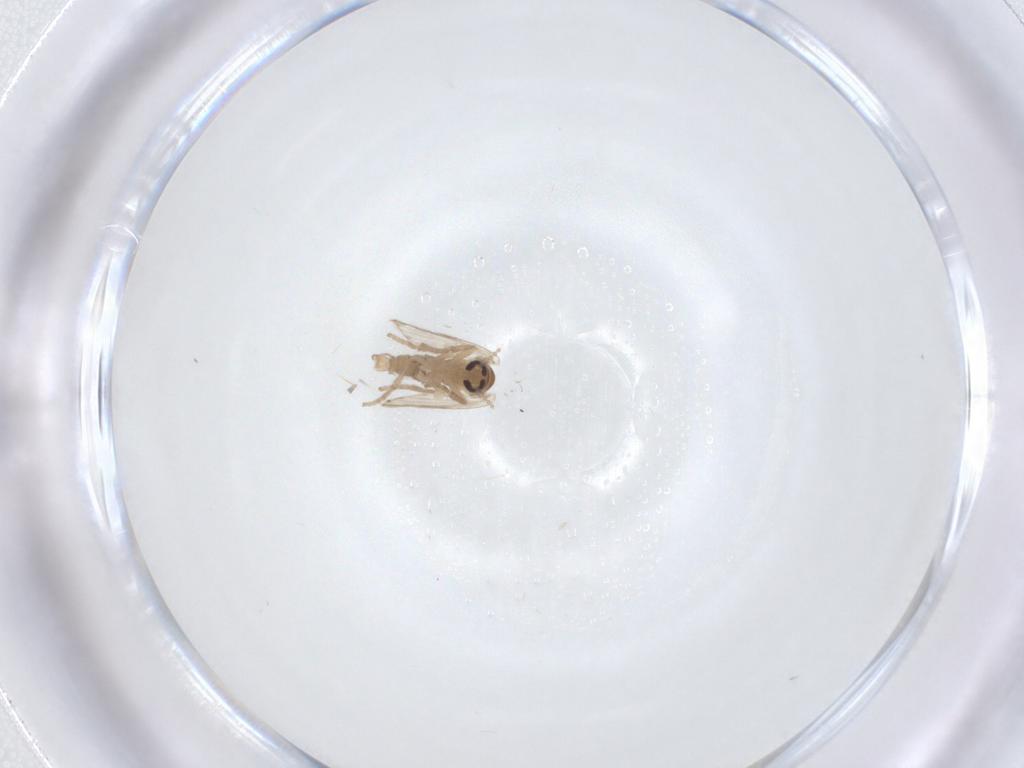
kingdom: Animalia
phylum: Arthropoda
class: Insecta
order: Diptera
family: Psychodidae
